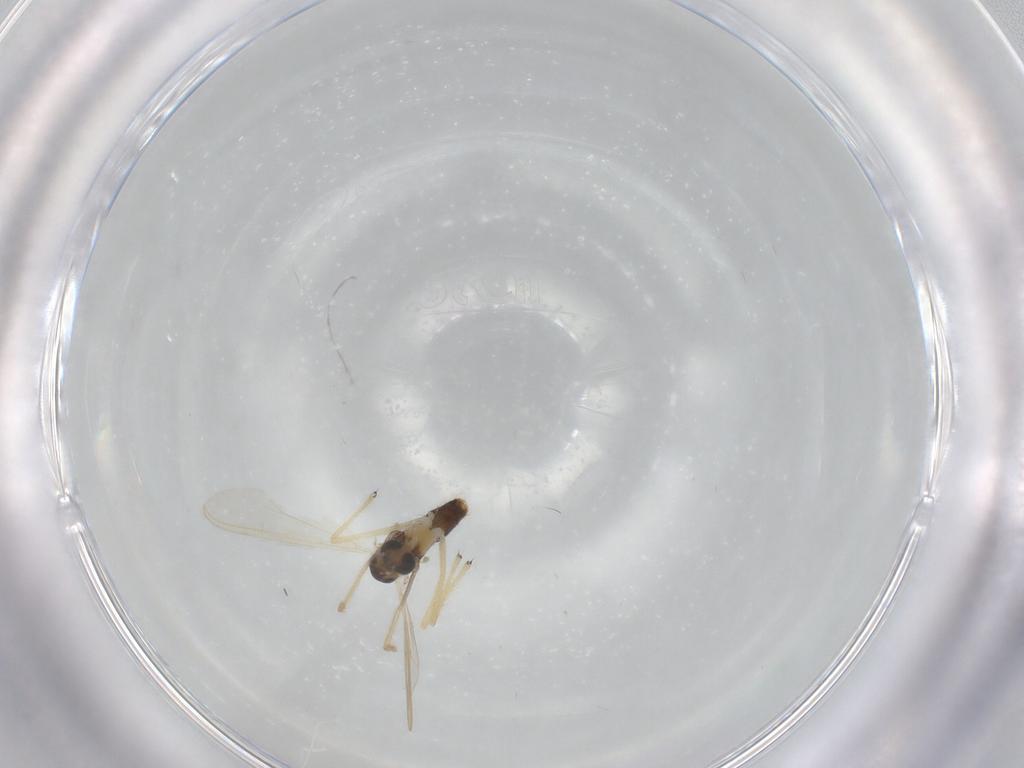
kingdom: Animalia
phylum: Arthropoda
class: Insecta
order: Diptera
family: Chironomidae
